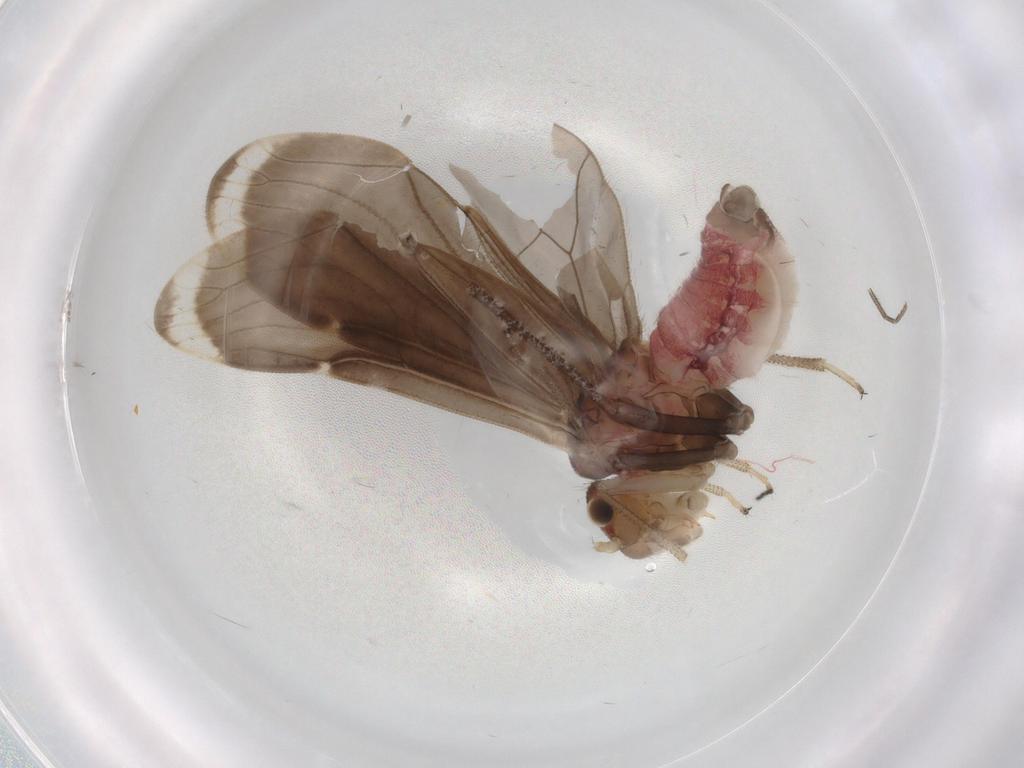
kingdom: Animalia
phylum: Arthropoda
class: Insecta
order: Psocodea
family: Amphipsocidae
